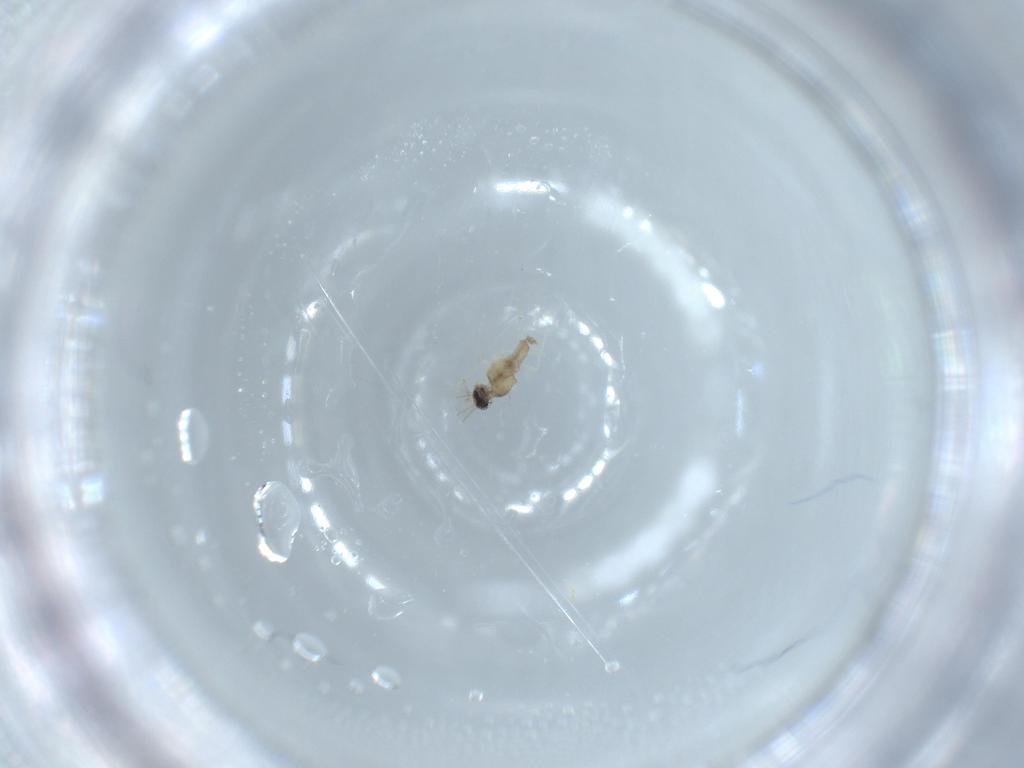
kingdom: Animalia
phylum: Arthropoda
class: Insecta
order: Diptera
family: Cecidomyiidae
